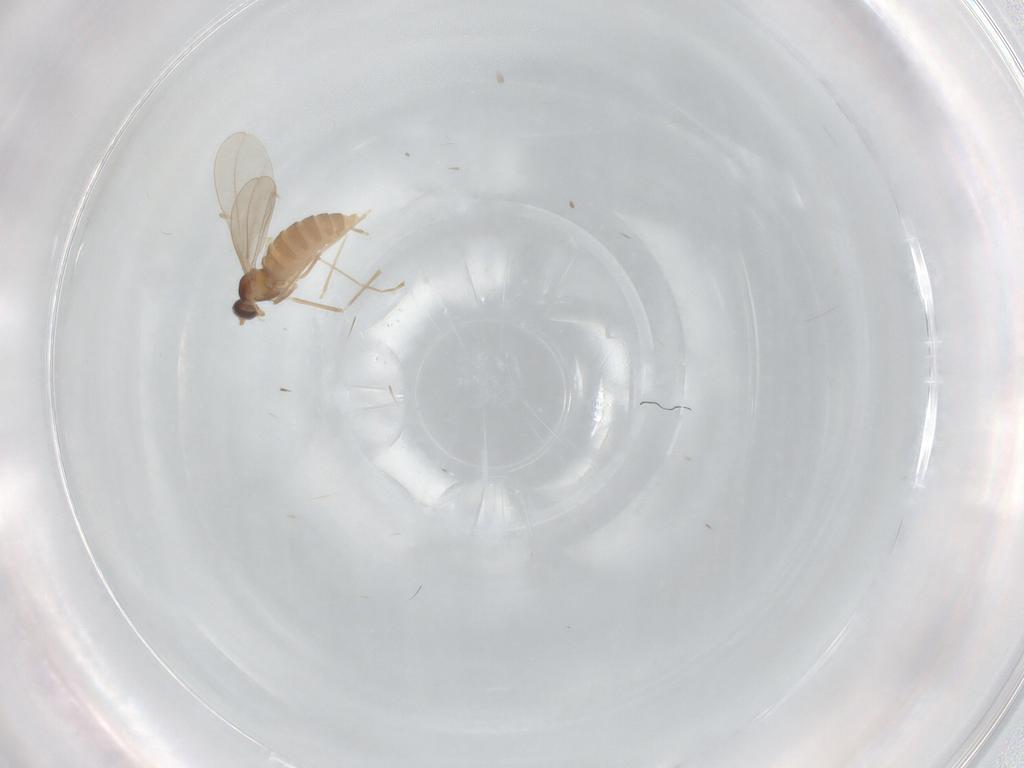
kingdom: Animalia
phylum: Arthropoda
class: Insecta
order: Diptera
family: Cecidomyiidae
